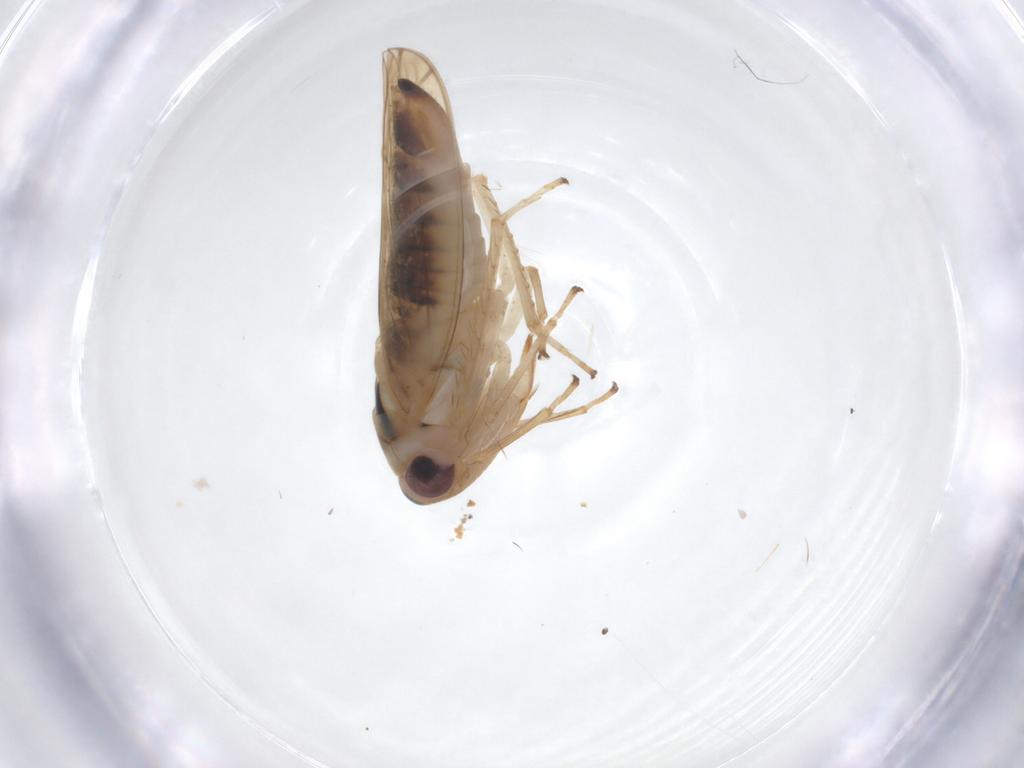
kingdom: Animalia
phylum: Arthropoda
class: Insecta
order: Hemiptera
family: Cicadellidae
